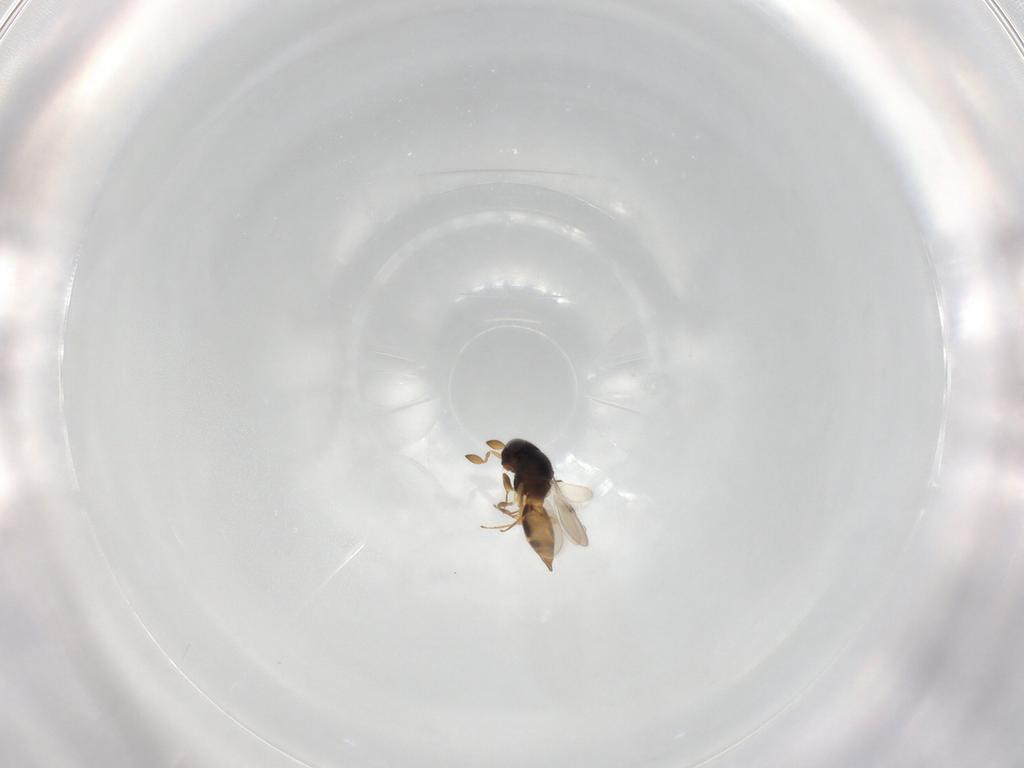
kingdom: Animalia
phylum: Arthropoda
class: Insecta
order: Hymenoptera
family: Scelionidae
